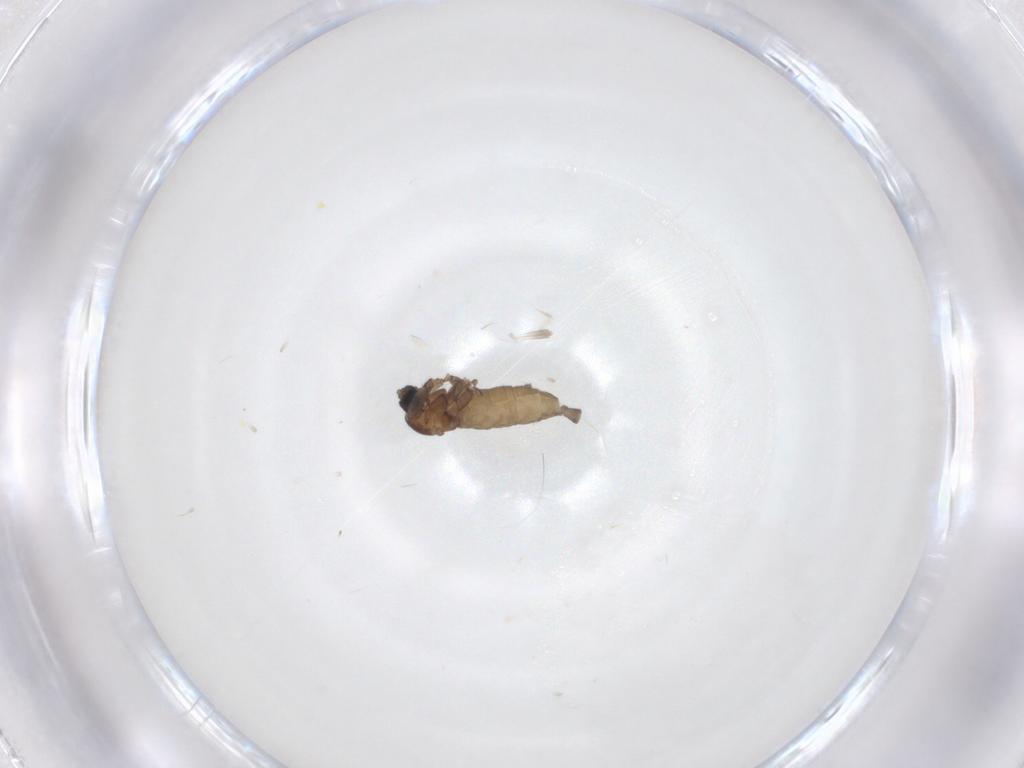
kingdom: Animalia
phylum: Arthropoda
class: Insecta
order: Diptera
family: Sciaridae
